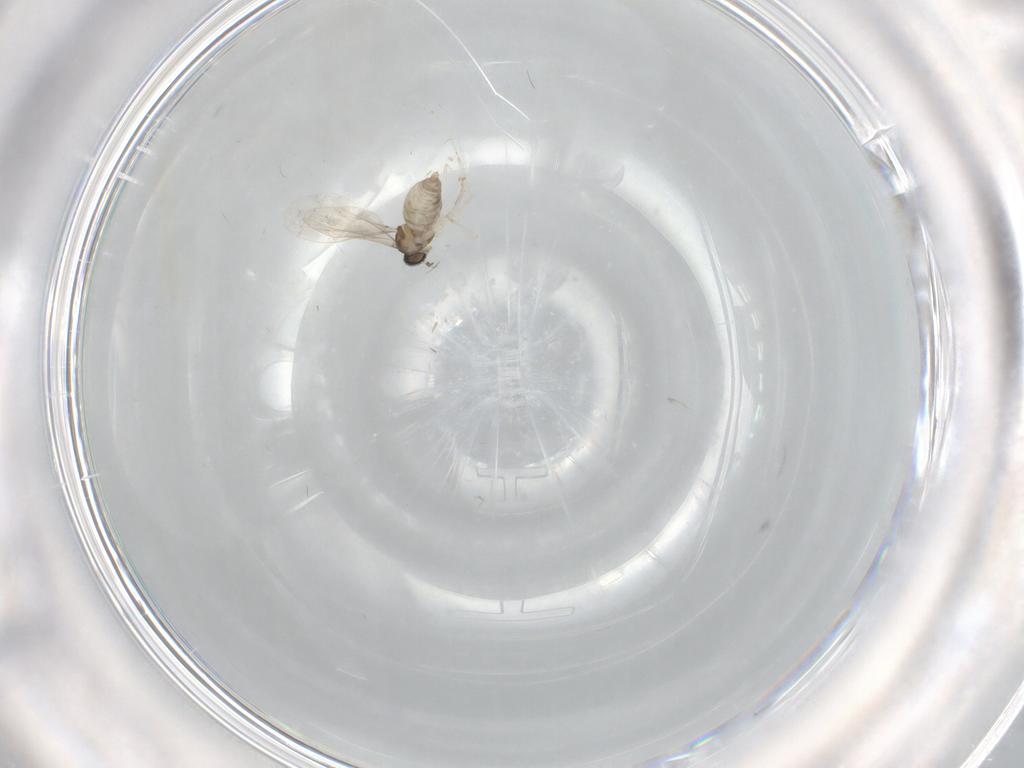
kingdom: Animalia
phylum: Arthropoda
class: Insecta
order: Diptera
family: Cecidomyiidae
